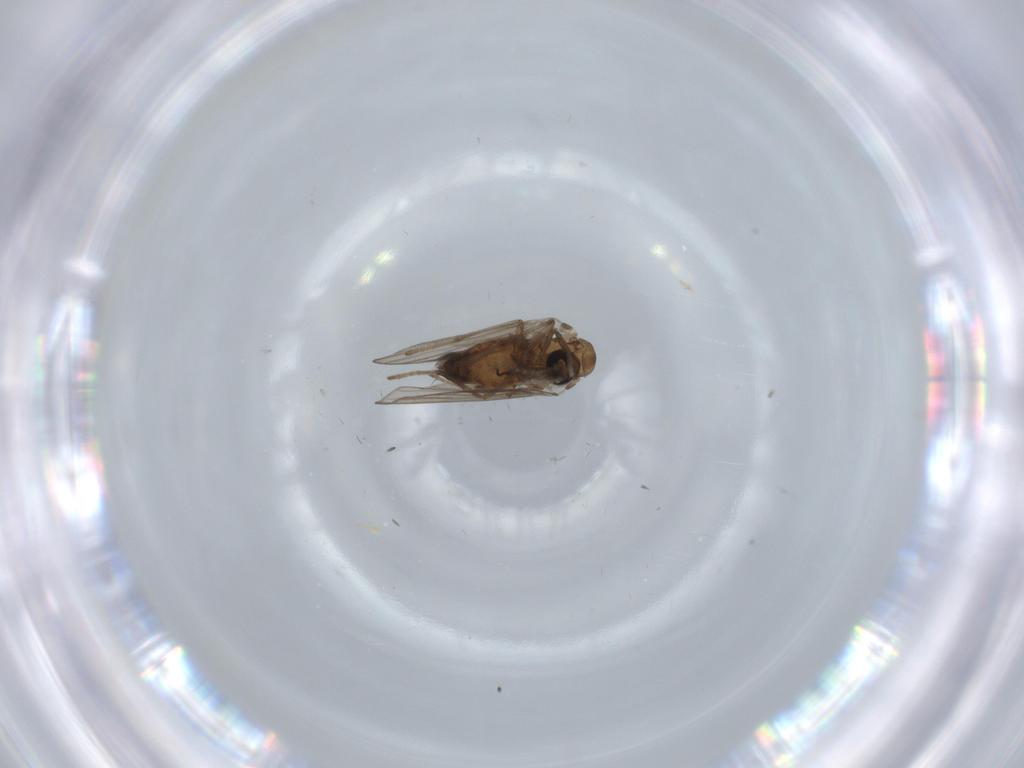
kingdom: Animalia
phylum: Arthropoda
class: Insecta
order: Diptera
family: Psychodidae
